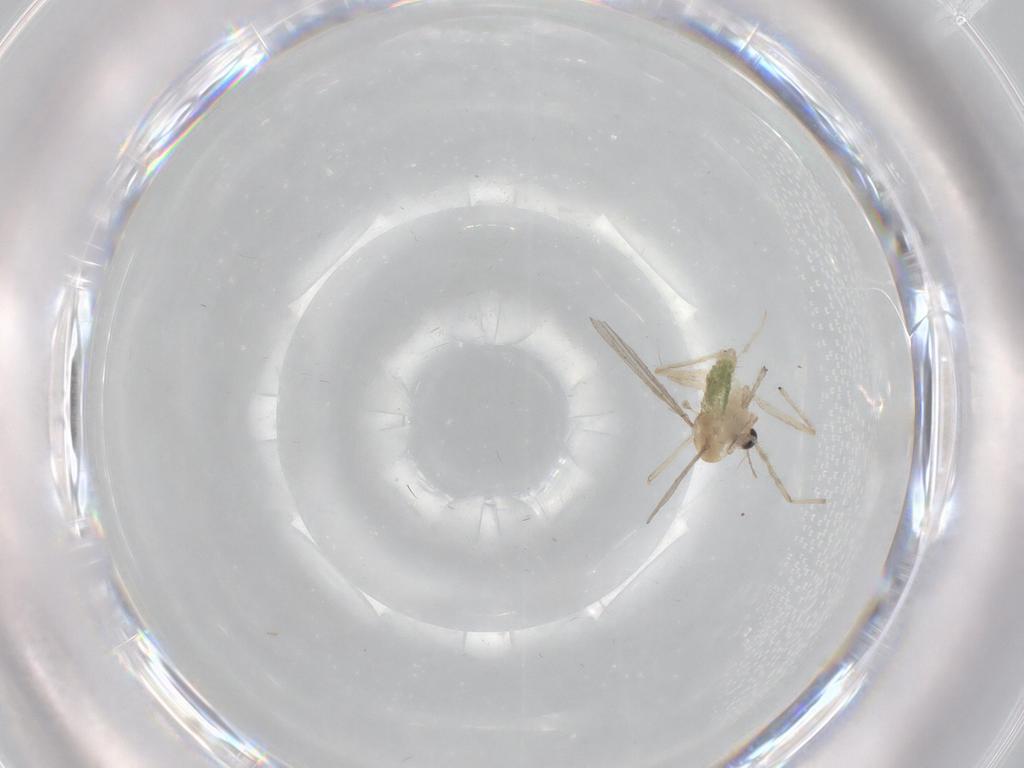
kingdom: Animalia
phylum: Arthropoda
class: Insecta
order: Diptera
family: Chironomidae
